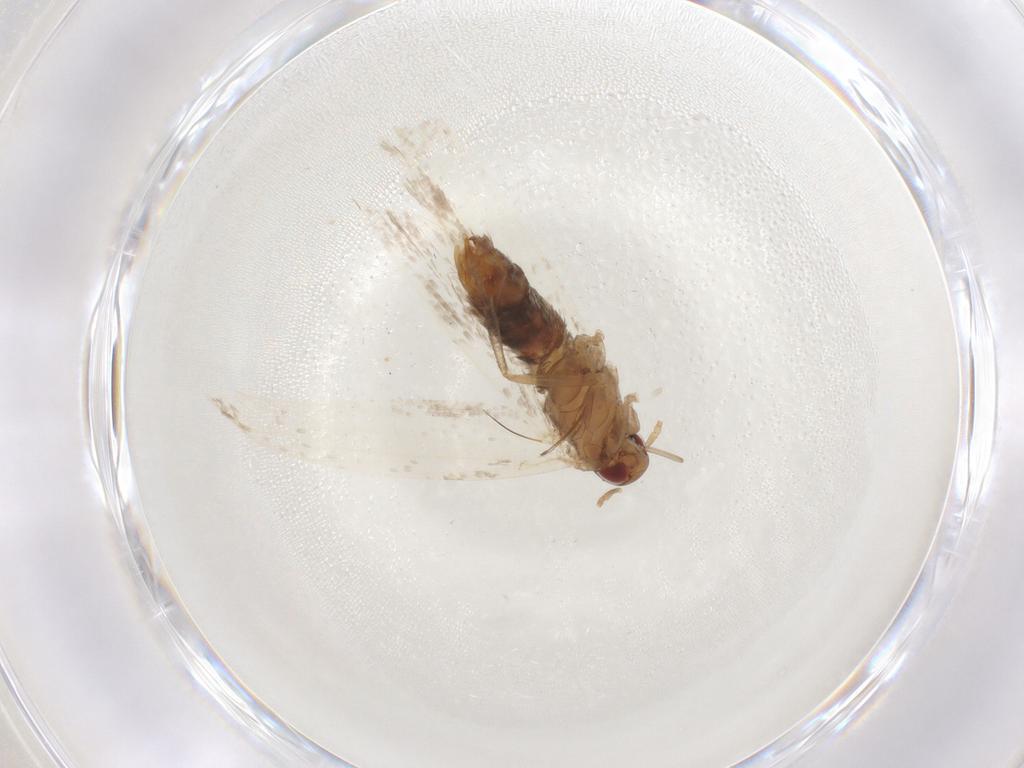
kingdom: Animalia
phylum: Arthropoda
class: Insecta
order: Lepidoptera
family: Gelechiidae
